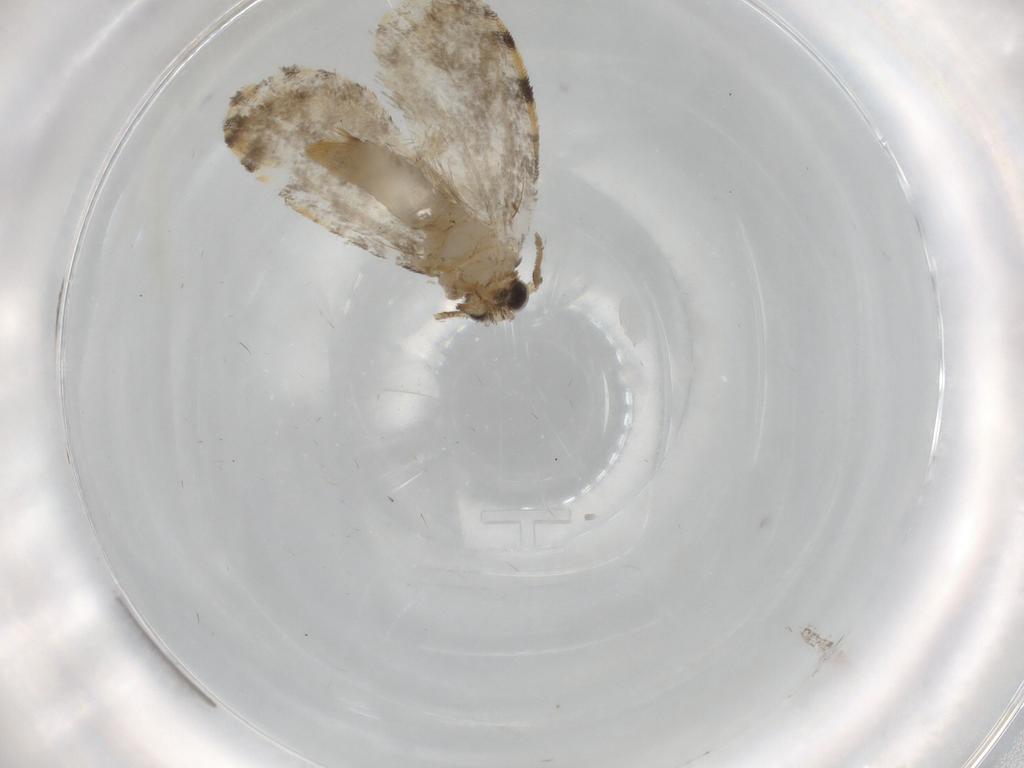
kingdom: Animalia
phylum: Arthropoda
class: Insecta
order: Lepidoptera
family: Psychidae
